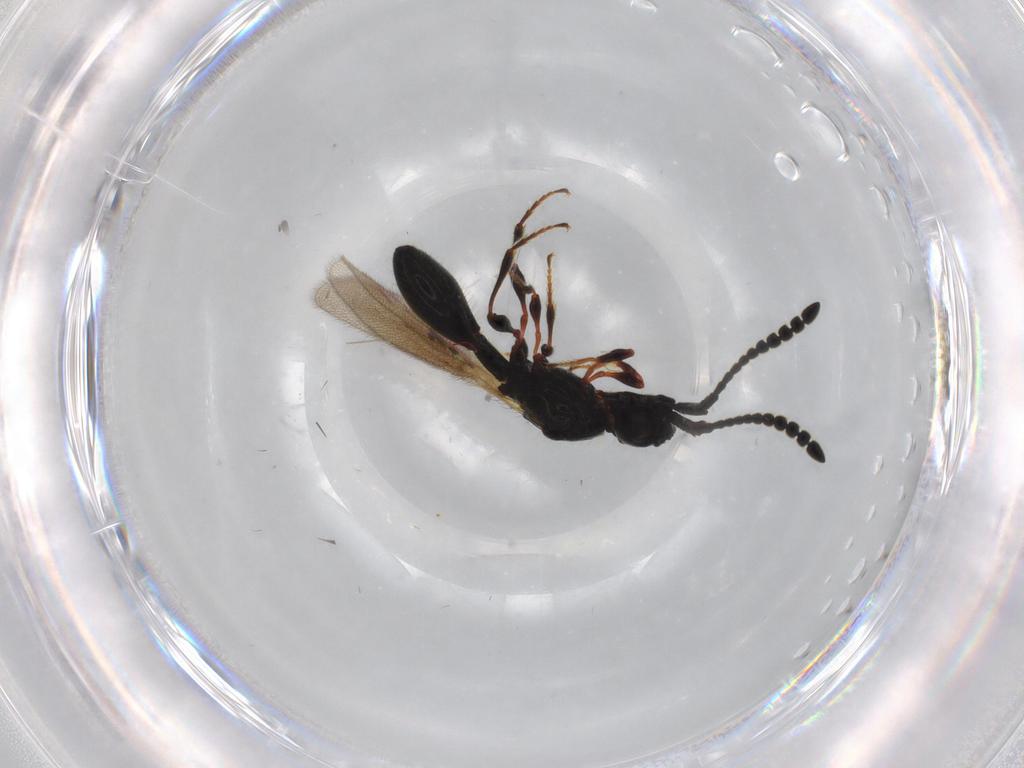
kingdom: Animalia
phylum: Arthropoda
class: Insecta
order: Hymenoptera
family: Diapriidae
